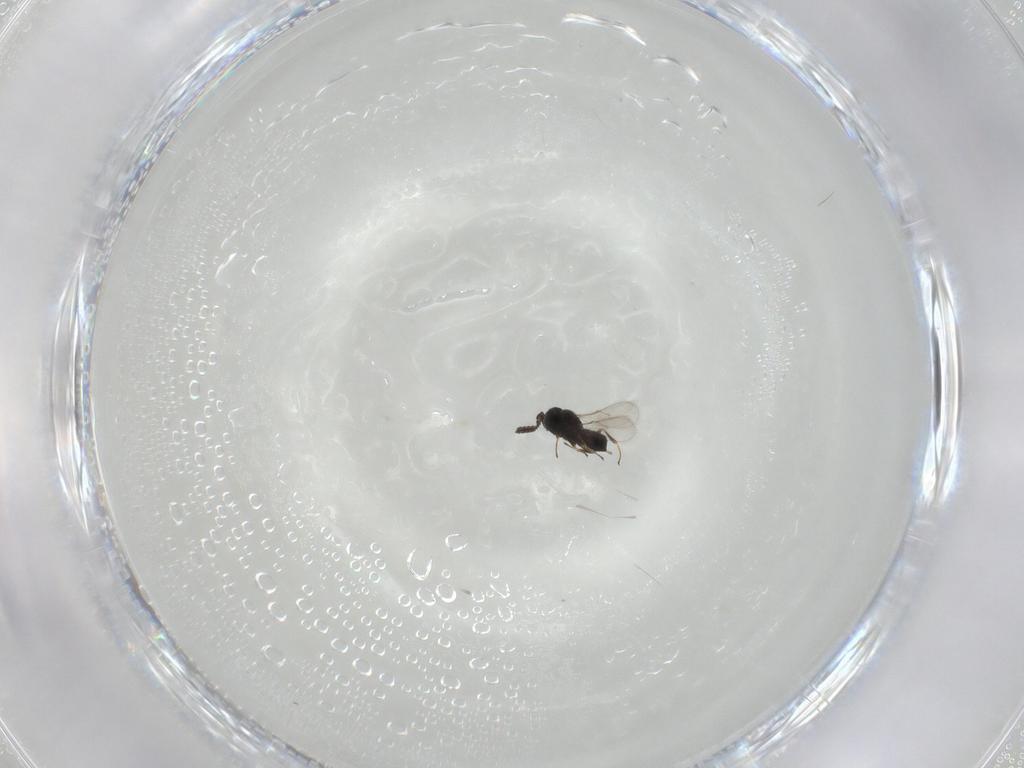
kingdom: Animalia
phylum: Arthropoda
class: Insecta
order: Hymenoptera
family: Scelionidae
